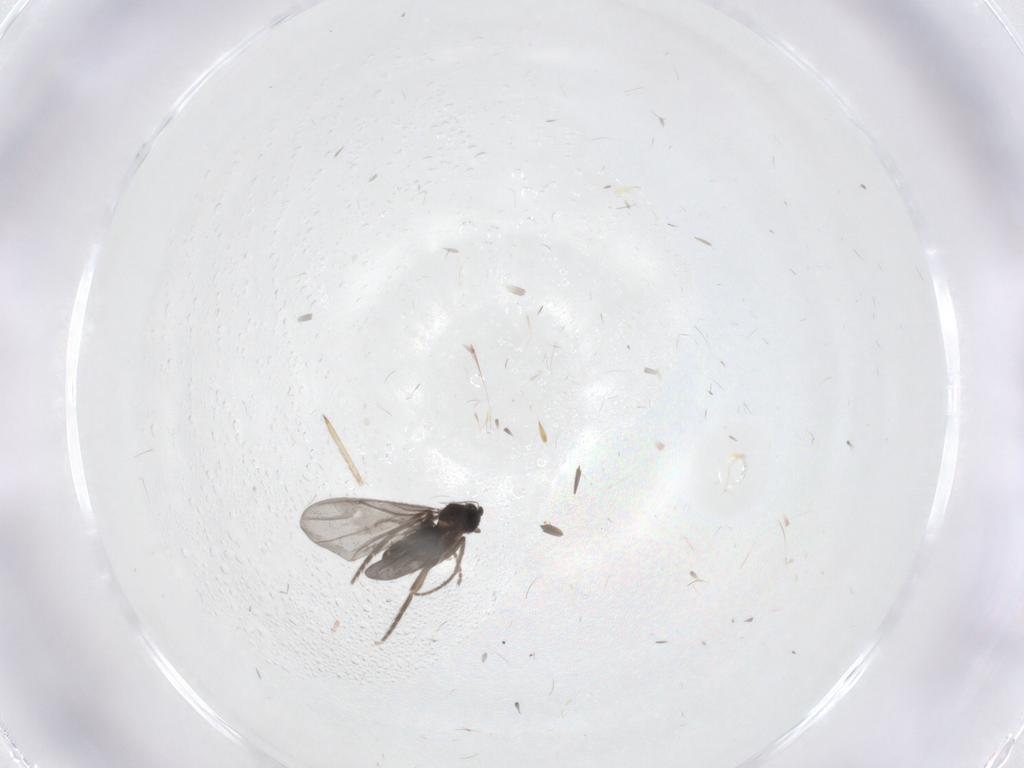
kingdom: Animalia
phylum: Arthropoda
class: Insecta
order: Diptera
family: Phoridae
